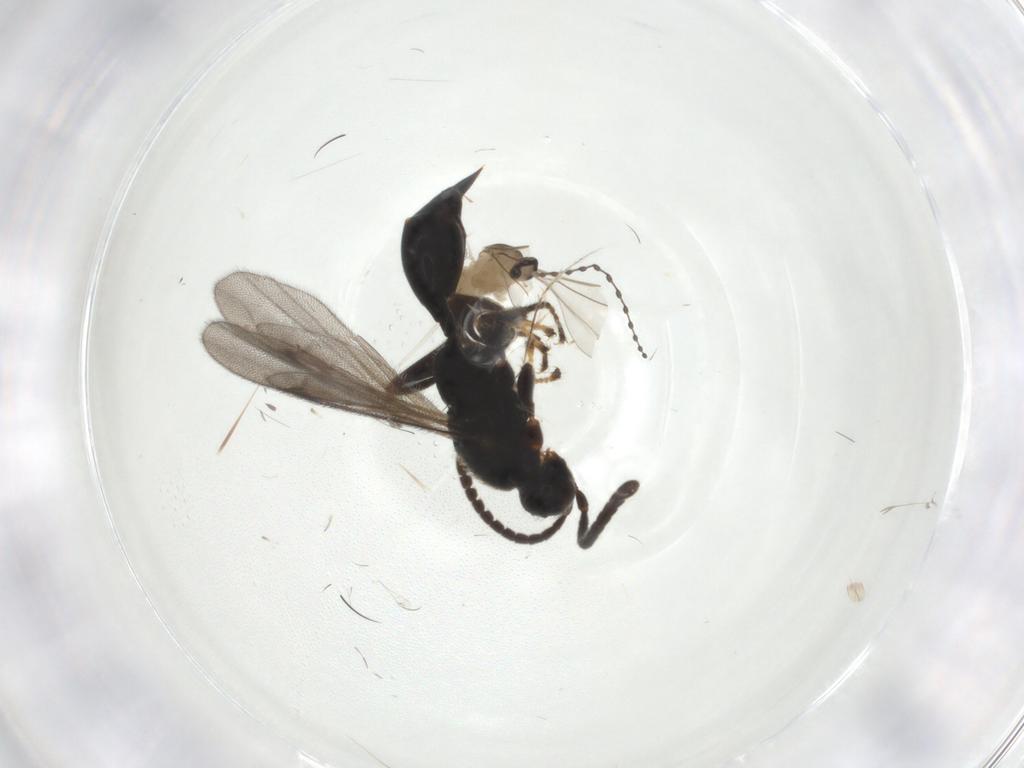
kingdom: Animalia
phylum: Arthropoda
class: Insecta
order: Diptera
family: Cecidomyiidae
